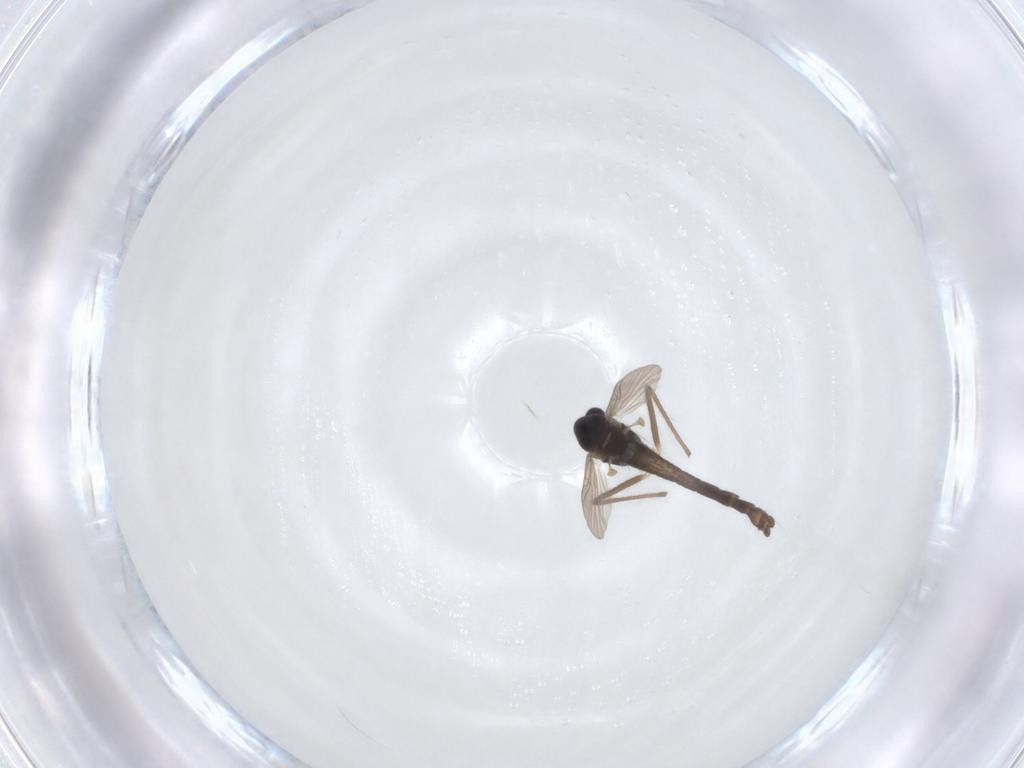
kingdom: Animalia
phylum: Arthropoda
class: Insecta
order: Diptera
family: Chironomidae
